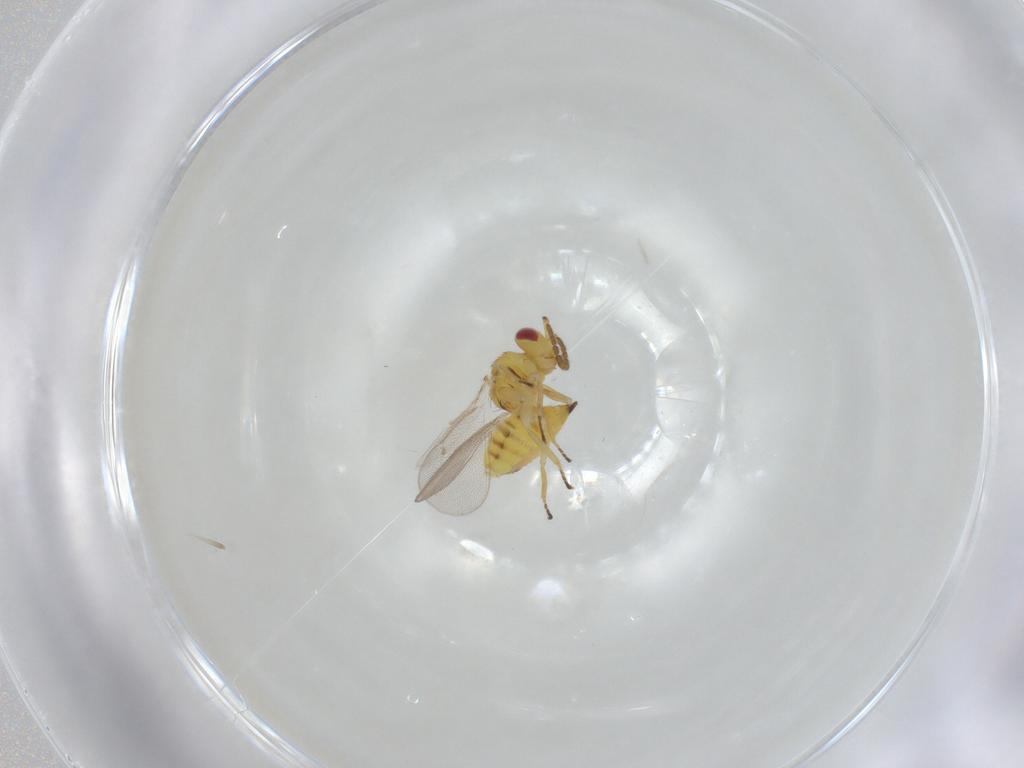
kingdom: Animalia
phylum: Arthropoda
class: Insecta
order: Hymenoptera
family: Eulophidae
